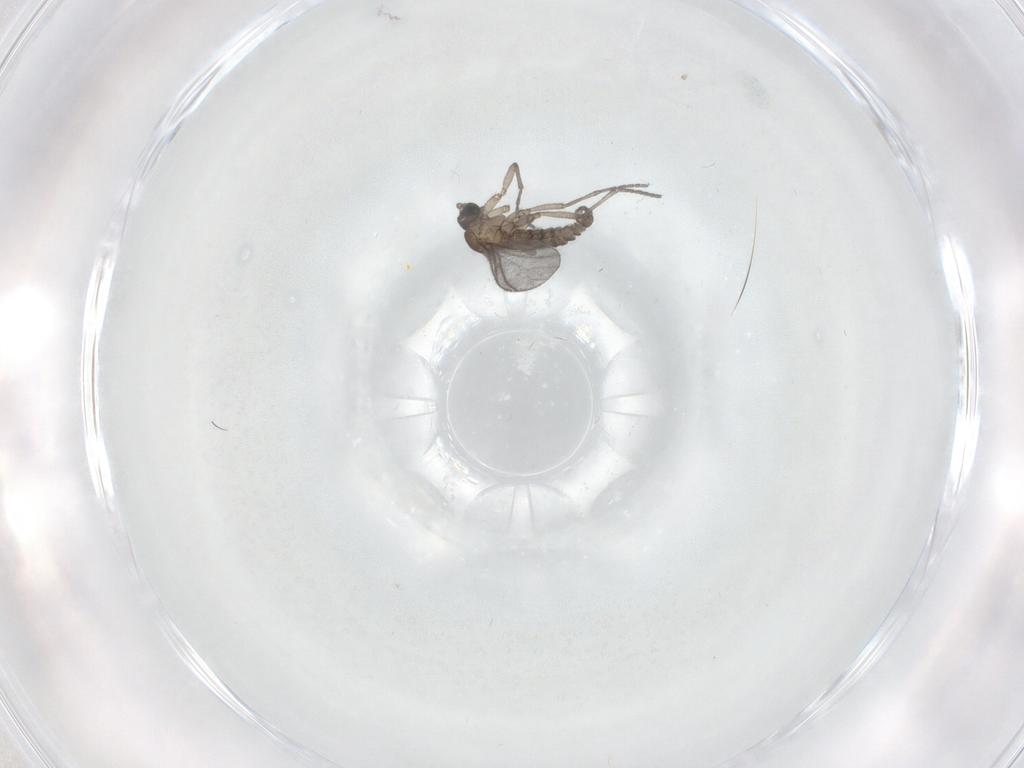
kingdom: Animalia
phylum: Arthropoda
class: Insecta
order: Diptera
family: Sciaridae
